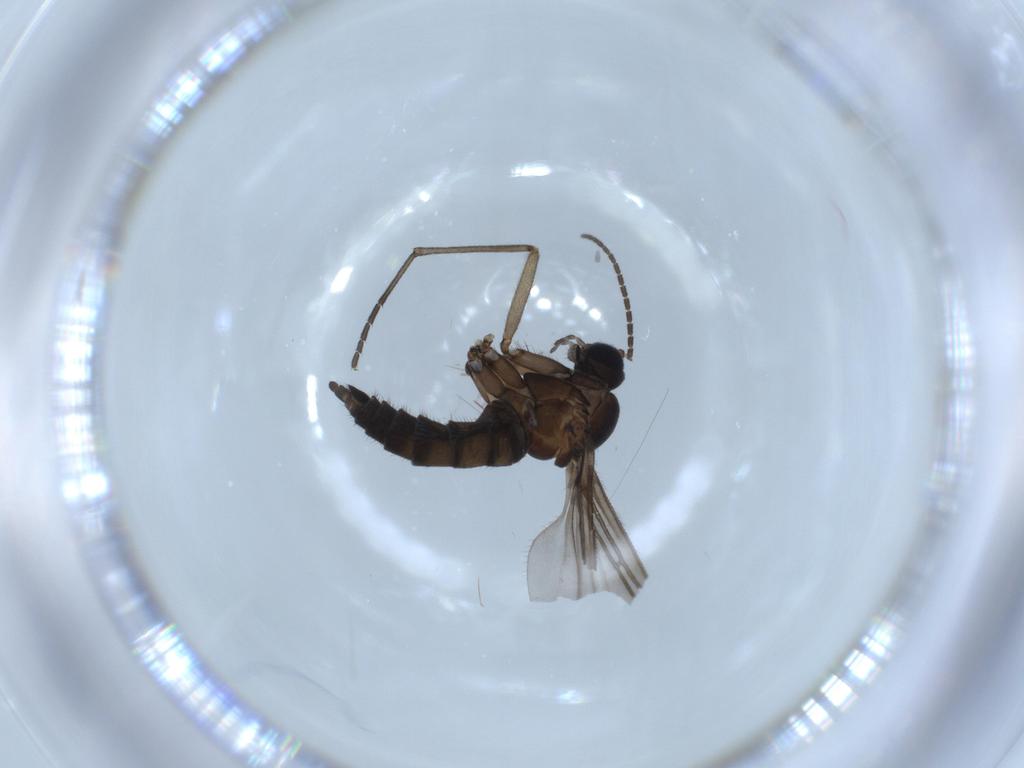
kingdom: Animalia
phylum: Arthropoda
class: Insecta
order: Diptera
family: Sciaridae
